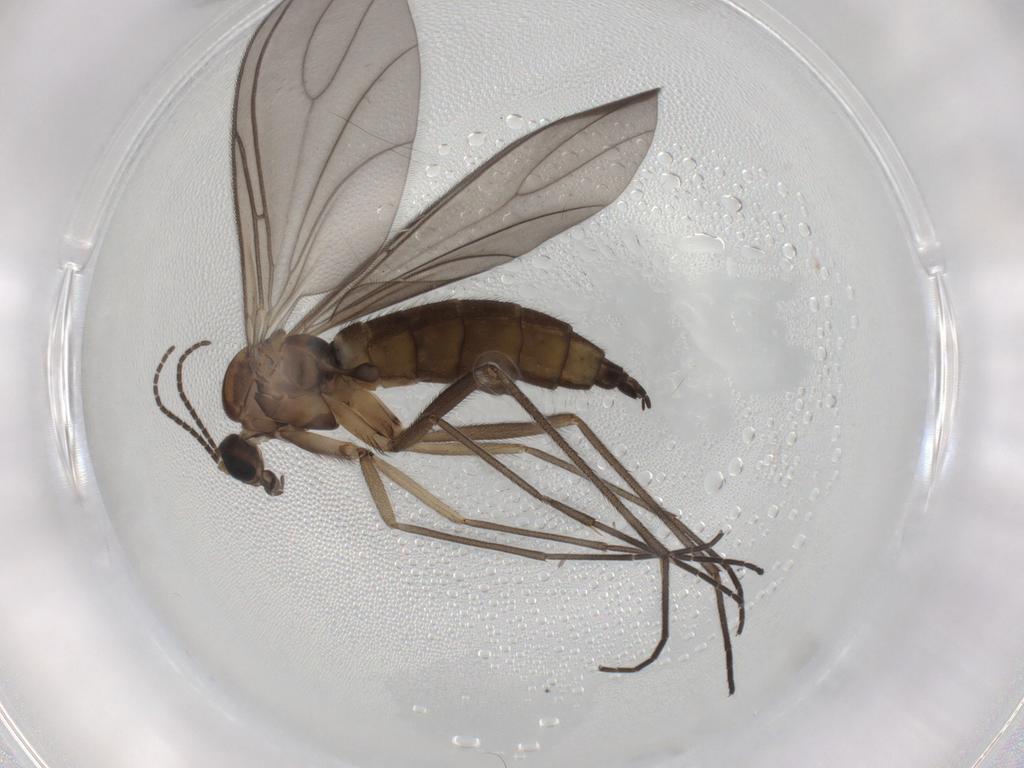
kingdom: Animalia
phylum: Arthropoda
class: Insecta
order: Diptera
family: Sciaridae
